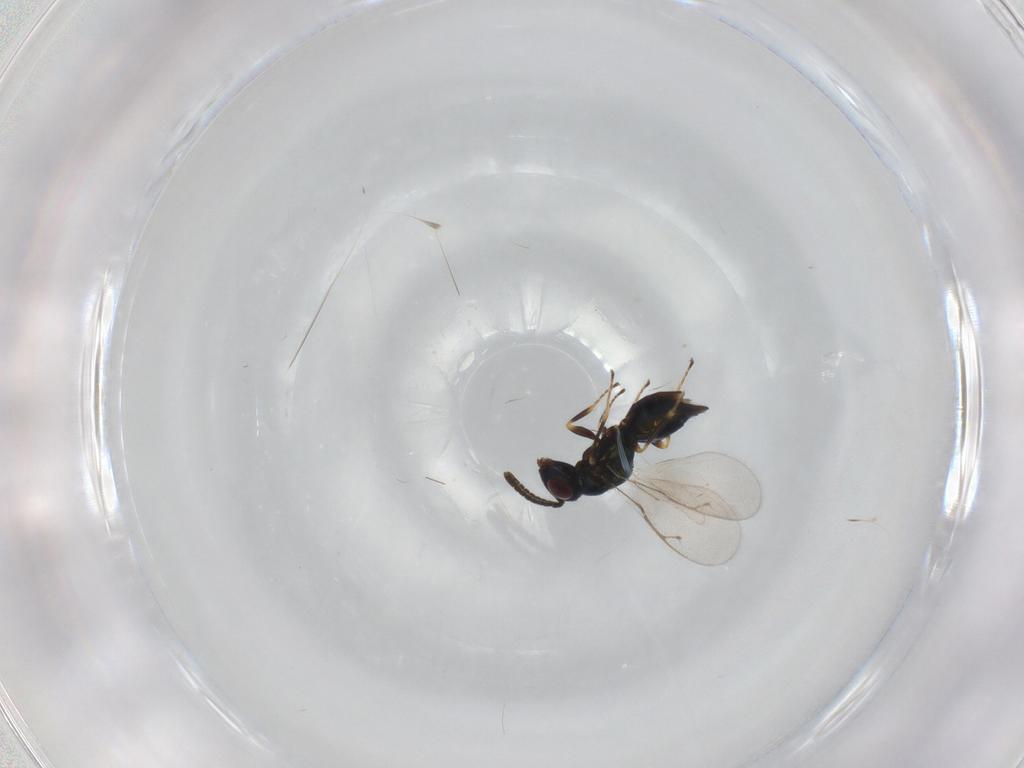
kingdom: Animalia
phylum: Arthropoda
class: Insecta
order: Hymenoptera
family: Pteromalidae
